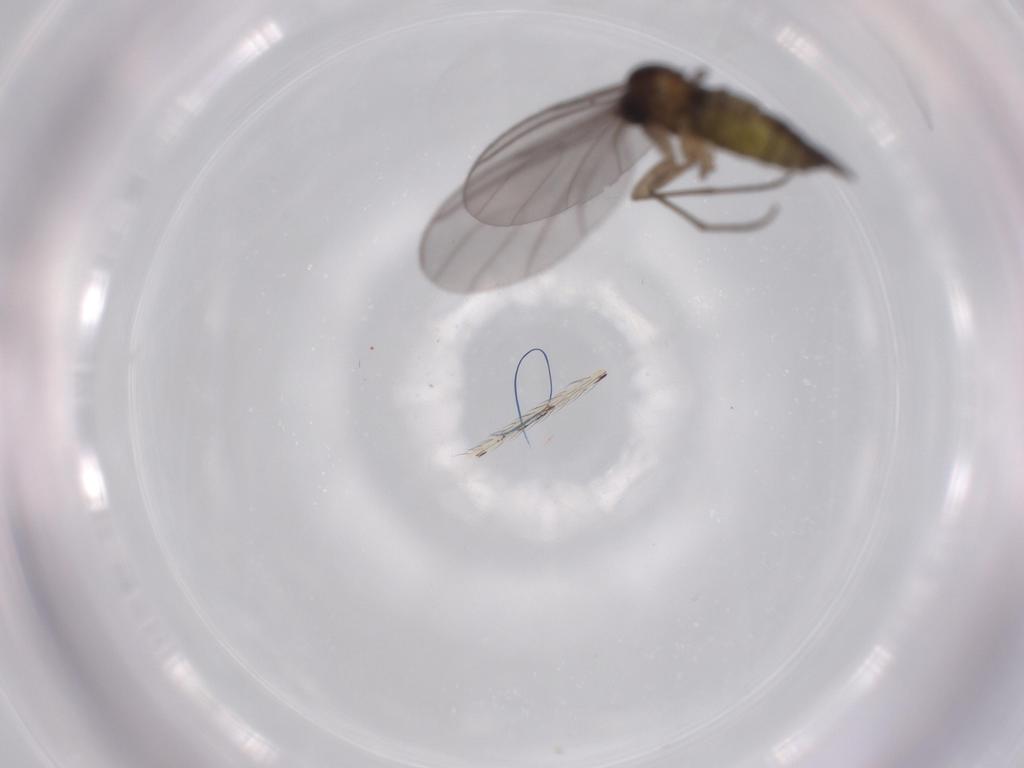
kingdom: Animalia
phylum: Arthropoda
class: Insecta
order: Diptera
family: Sciaridae
